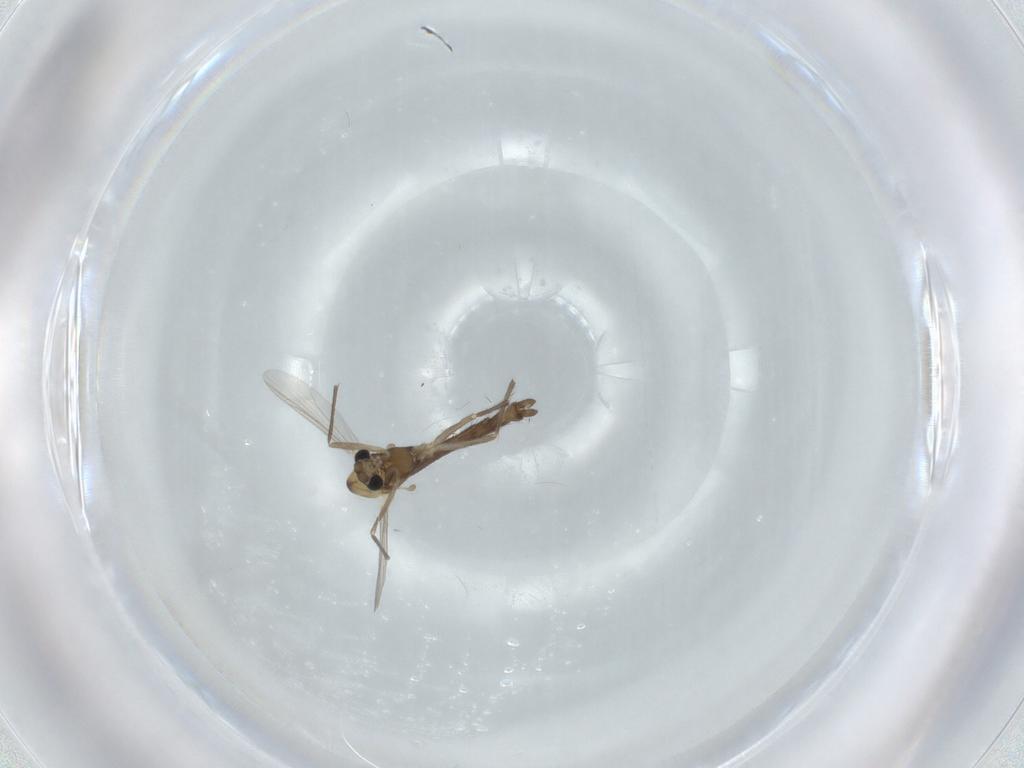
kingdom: Animalia
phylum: Arthropoda
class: Insecta
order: Diptera
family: Chironomidae
